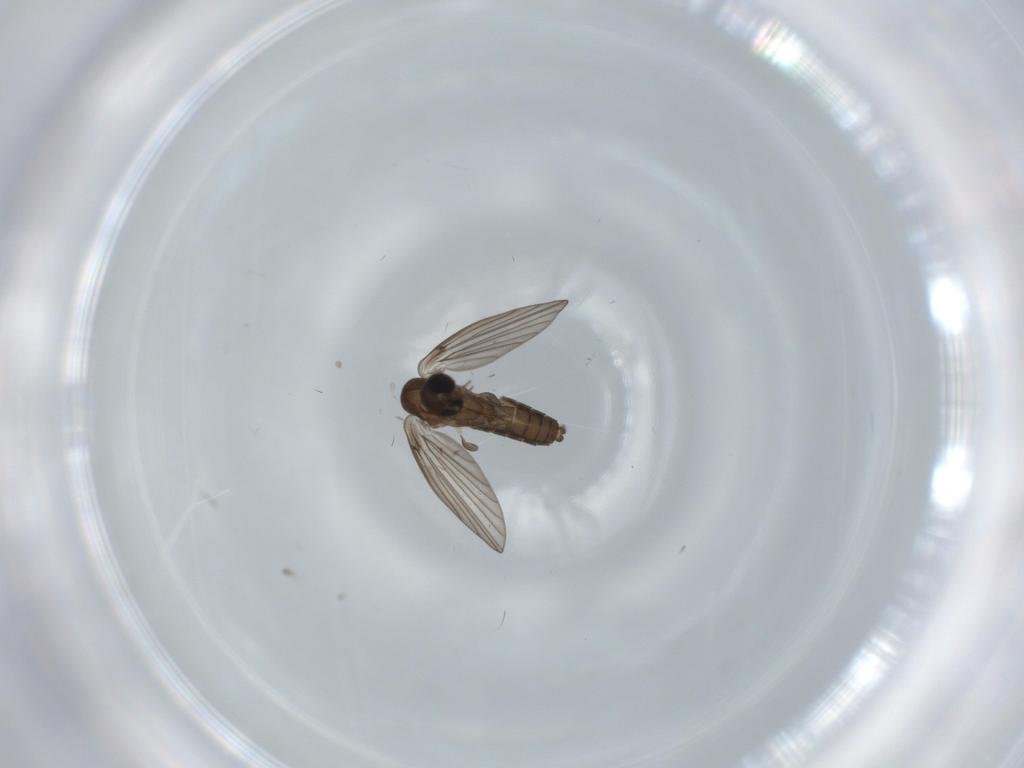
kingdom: Animalia
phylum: Arthropoda
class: Insecta
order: Diptera
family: Psychodidae
